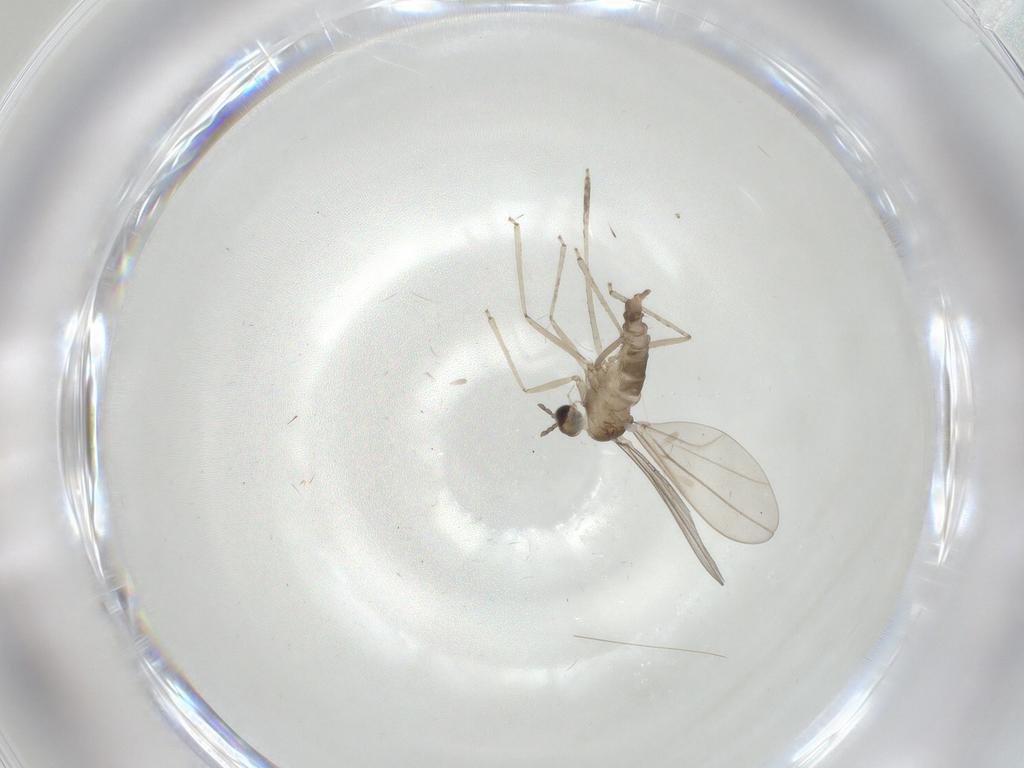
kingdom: Animalia
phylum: Arthropoda
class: Insecta
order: Diptera
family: Cecidomyiidae
